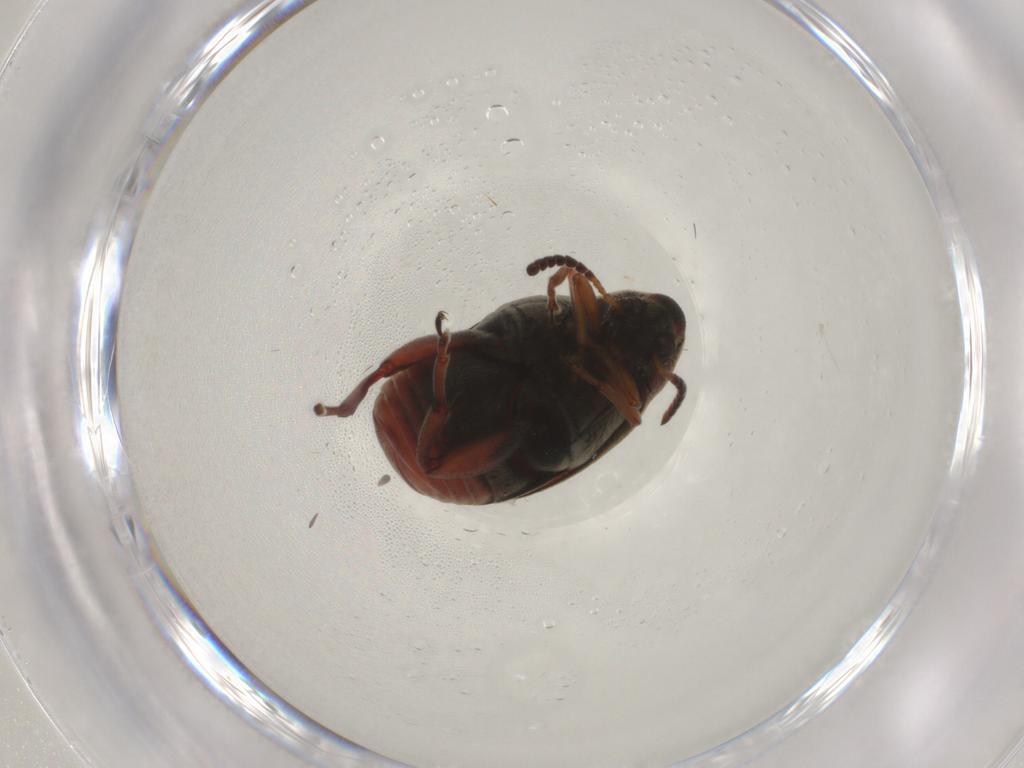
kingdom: Animalia
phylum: Arthropoda
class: Insecta
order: Coleoptera
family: Chrysomelidae
